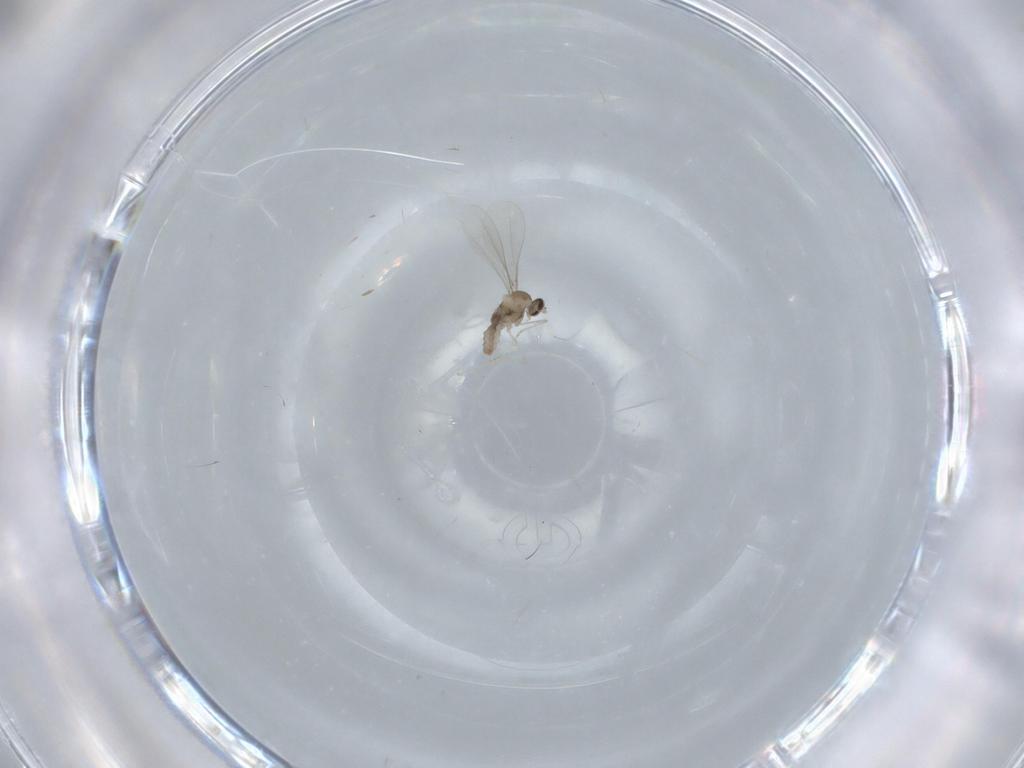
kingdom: Animalia
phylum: Arthropoda
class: Insecta
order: Diptera
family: Cecidomyiidae
